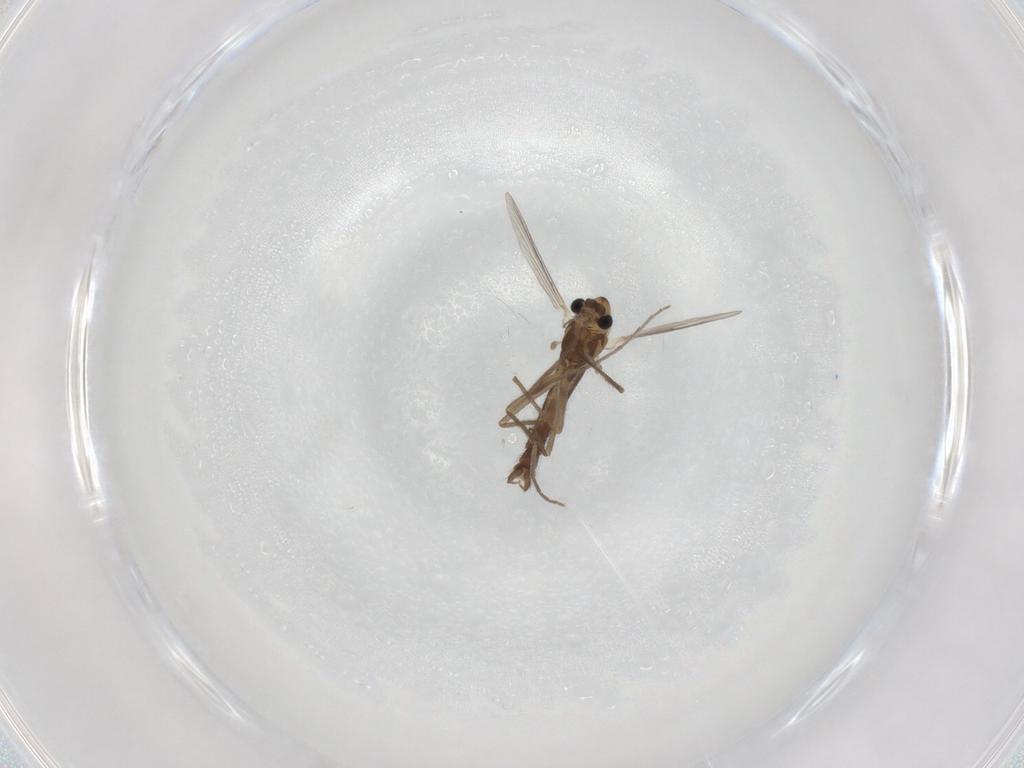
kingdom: Animalia
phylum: Arthropoda
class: Insecta
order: Diptera
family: Chironomidae
